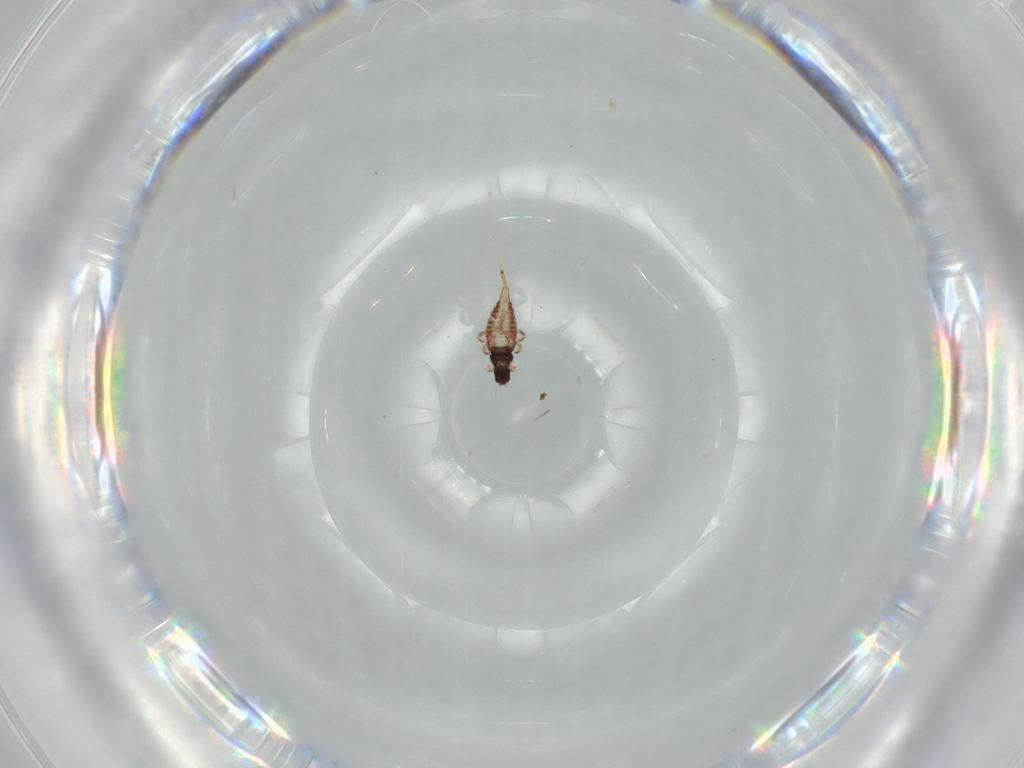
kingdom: Animalia
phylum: Arthropoda
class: Insecta
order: Thysanoptera
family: Phlaeothripidae
